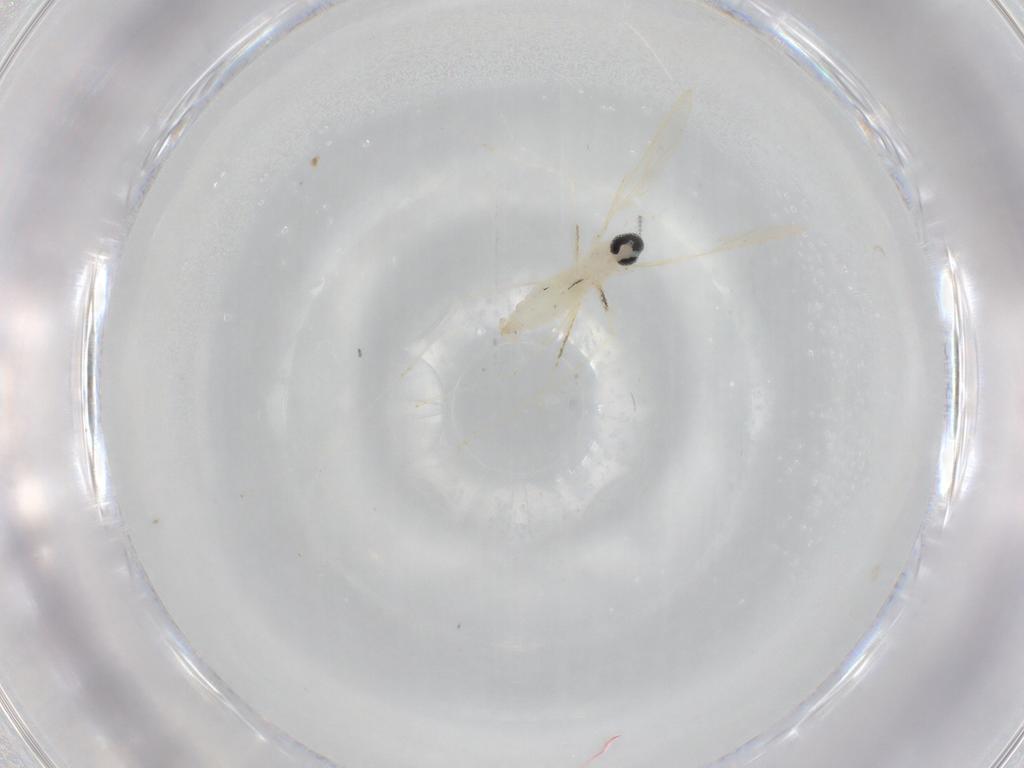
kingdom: Animalia
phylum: Arthropoda
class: Insecta
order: Diptera
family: Cecidomyiidae
